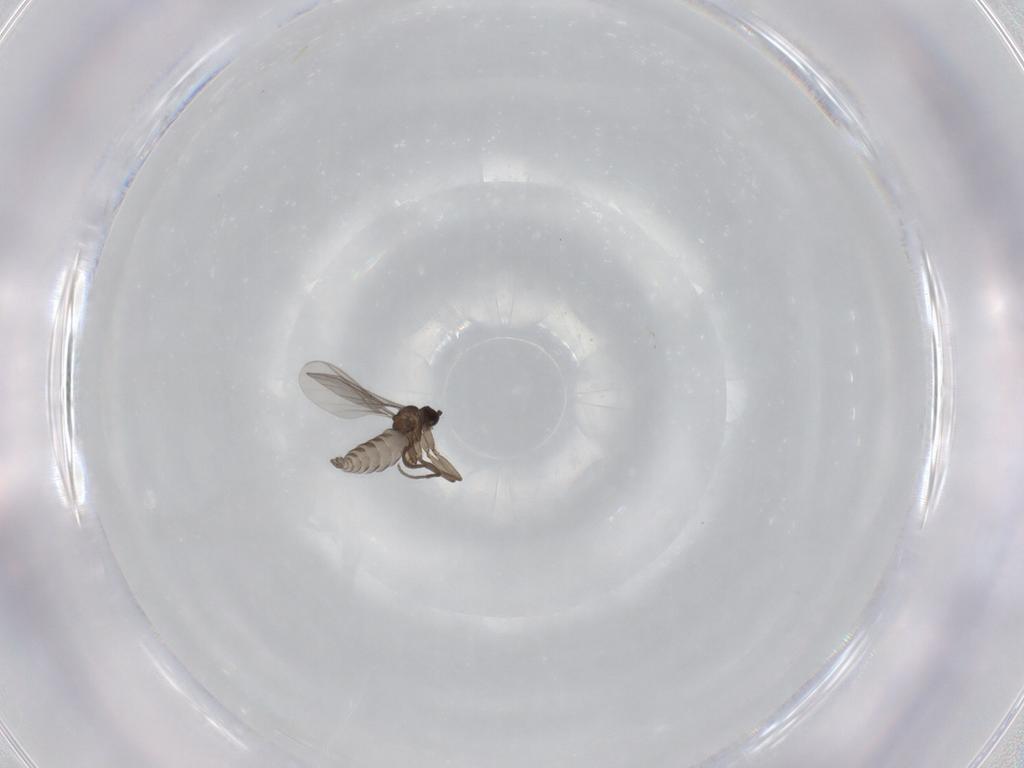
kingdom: Animalia
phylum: Arthropoda
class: Insecta
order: Diptera
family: Sciaridae
